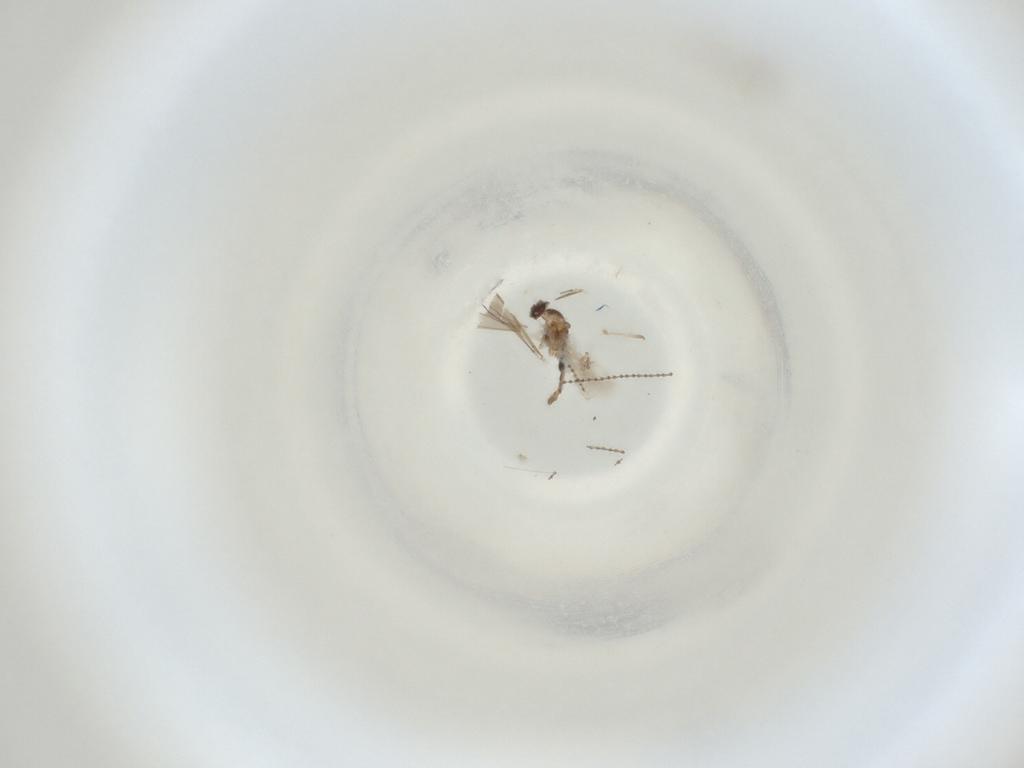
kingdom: Animalia
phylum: Arthropoda
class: Insecta
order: Diptera
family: Cecidomyiidae
